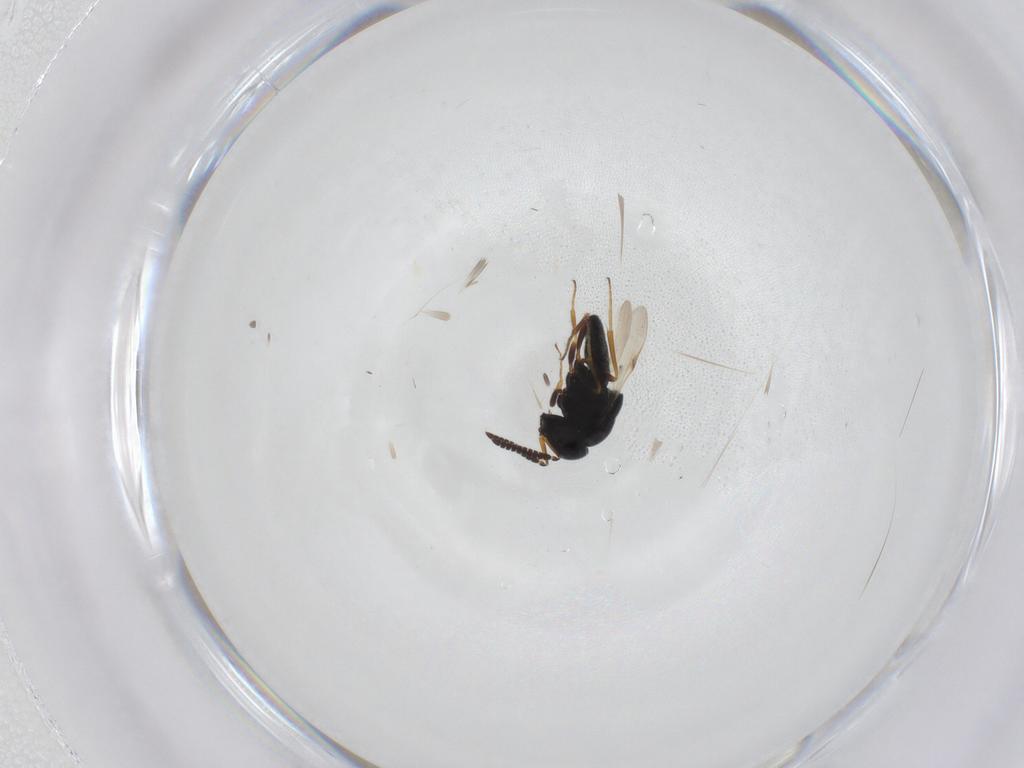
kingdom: Animalia
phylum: Arthropoda
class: Insecta
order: Hymenoptera
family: Scelionidae
